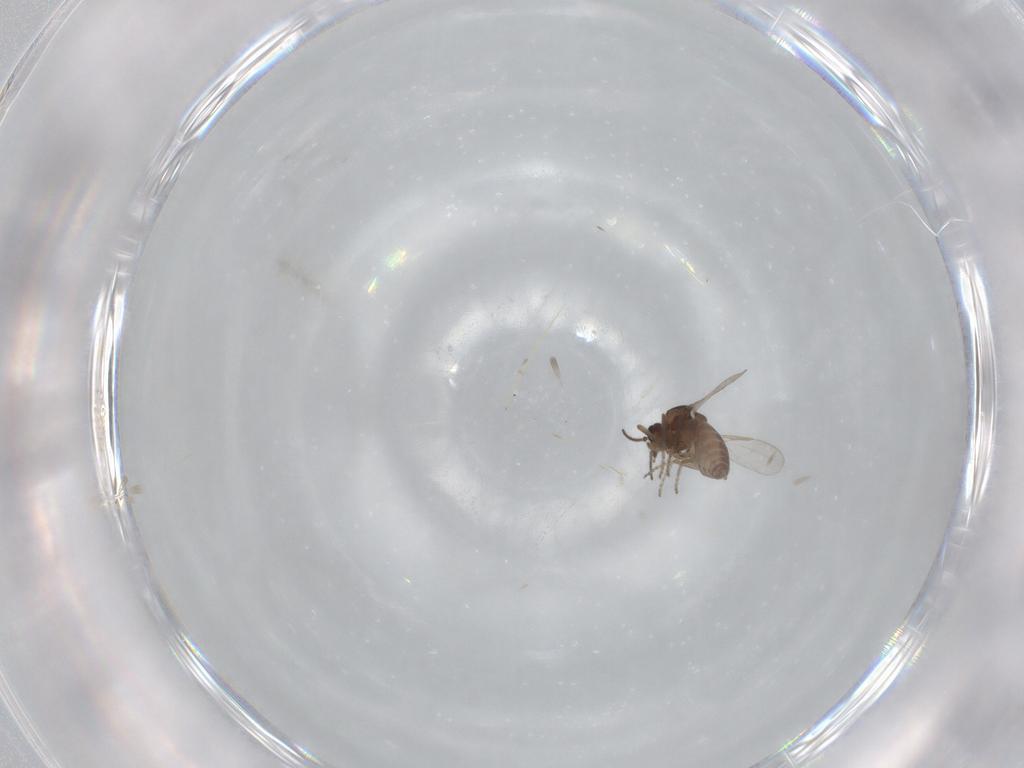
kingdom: Animalia
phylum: Arthropoda
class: Insecta
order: Diptera
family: Ceratopogonidae
